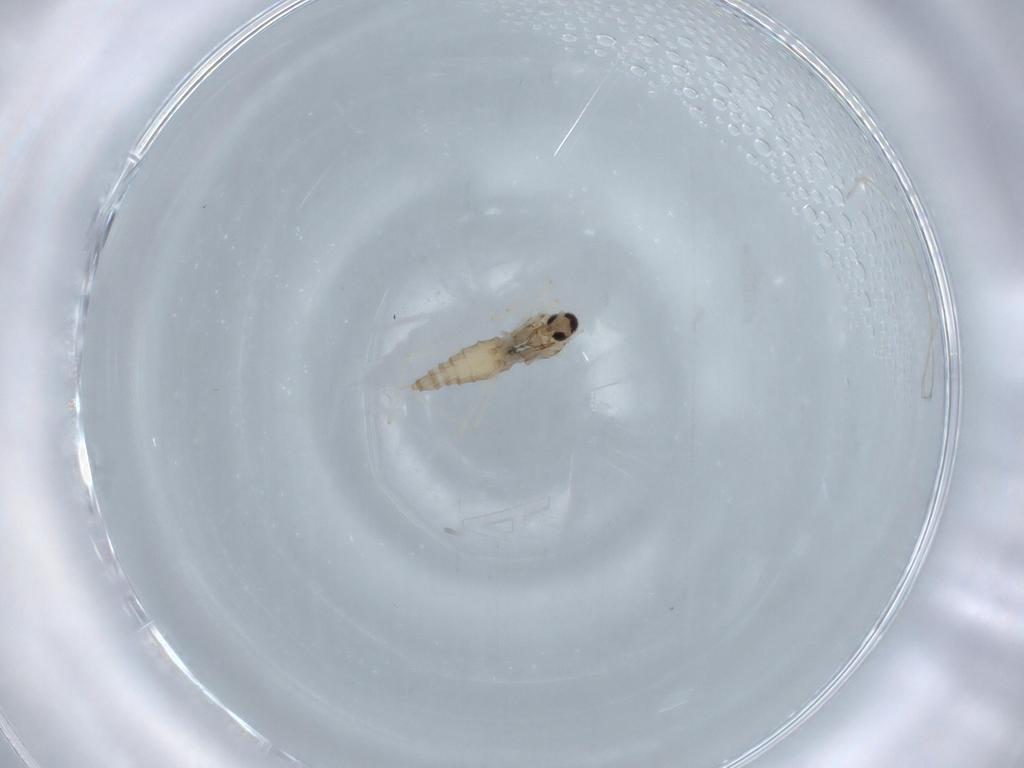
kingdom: Animalia
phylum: Arthropoda
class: Insecta
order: Diptera
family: Cecidomyiidae
